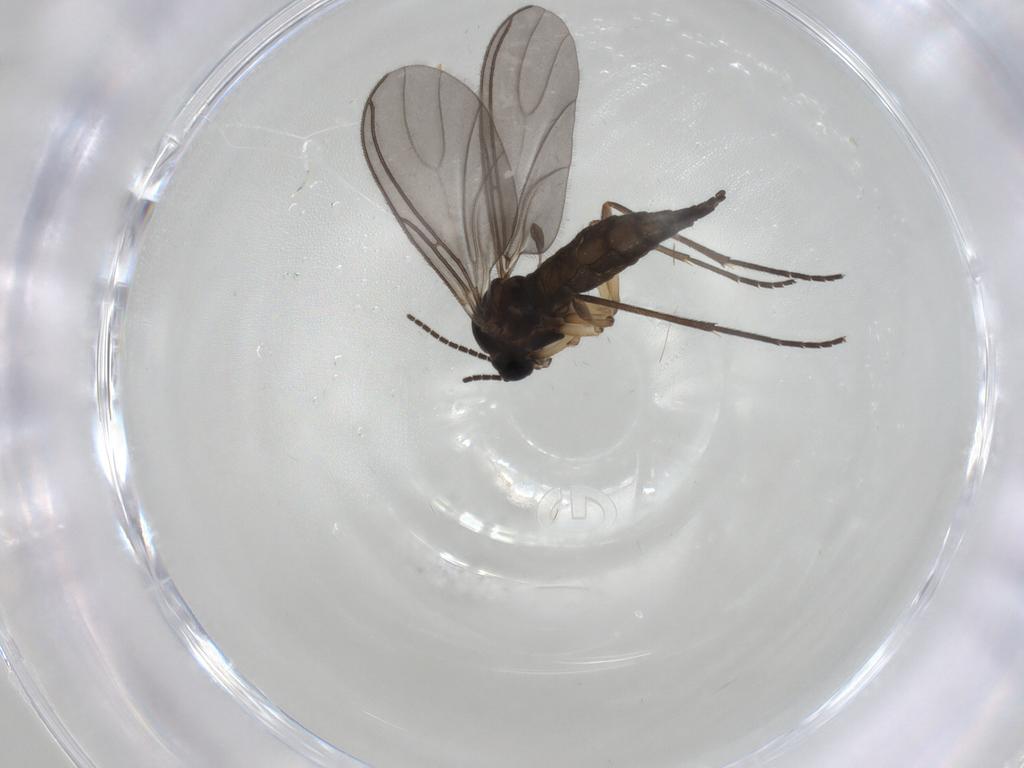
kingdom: Animalia
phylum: Arthropoda
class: Insecta
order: Diptera
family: Sciaridae
